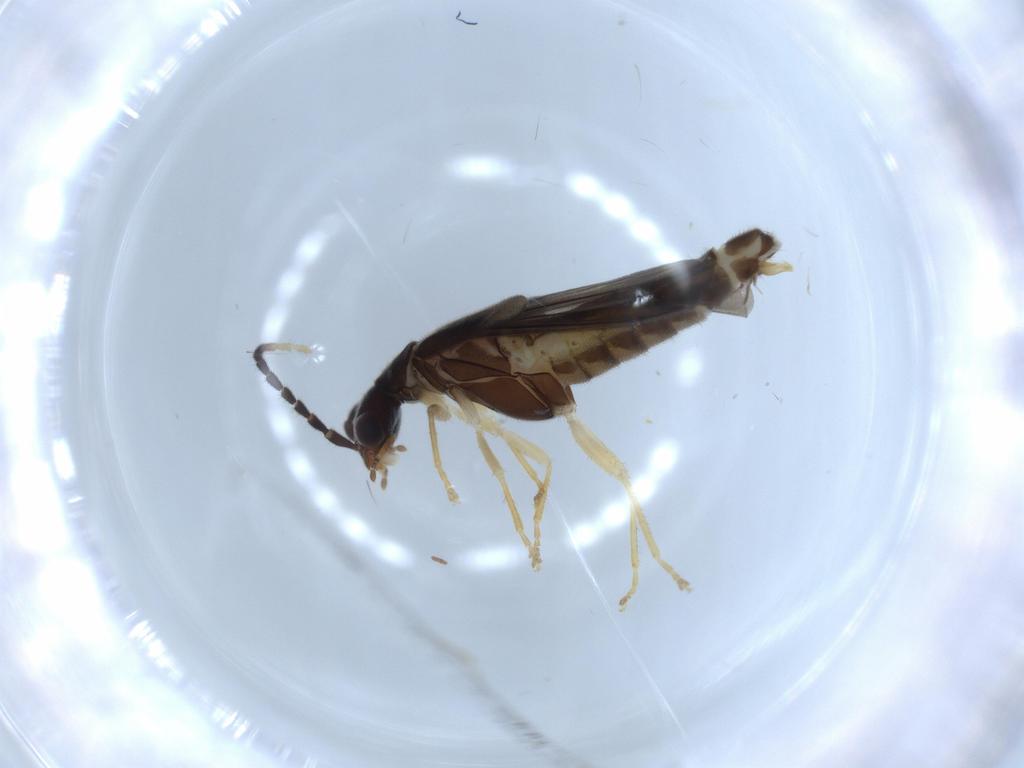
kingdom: Animalia
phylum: Arthropoda
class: Insecta
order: Coleoptera
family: Cantharidae
